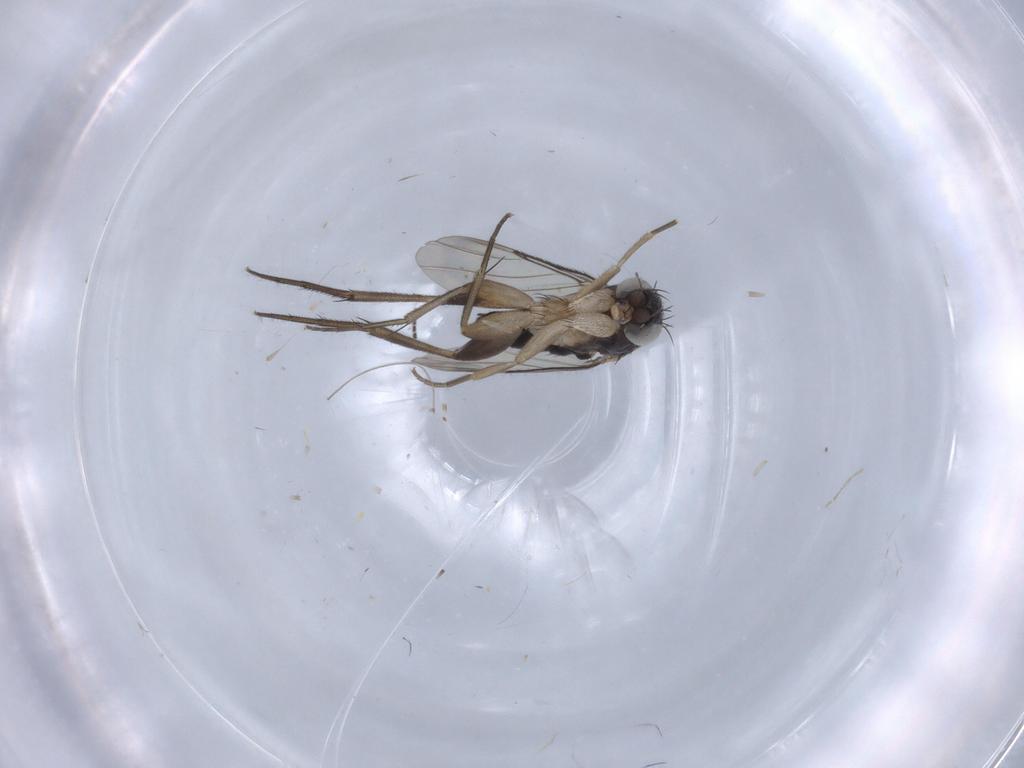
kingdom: Animalia
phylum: Arthropoda
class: Insecta
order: Diptera
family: Phoridae
